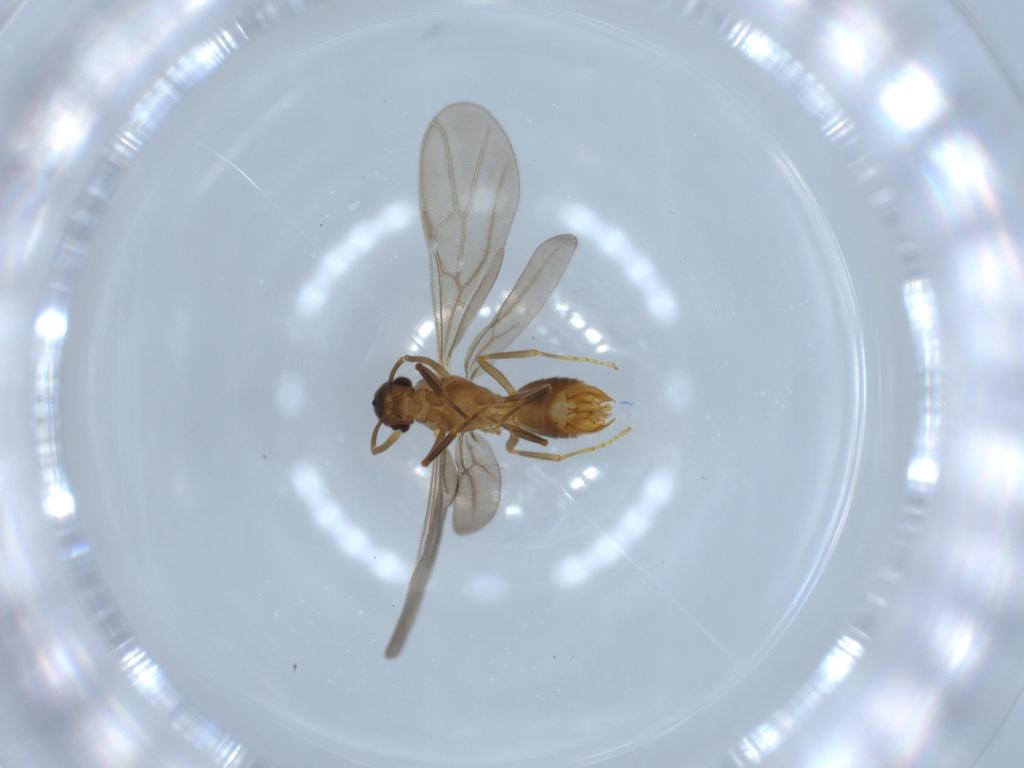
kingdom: Animalia
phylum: Arthropoda
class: Insecta
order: Hymenoptera
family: Formicidae
